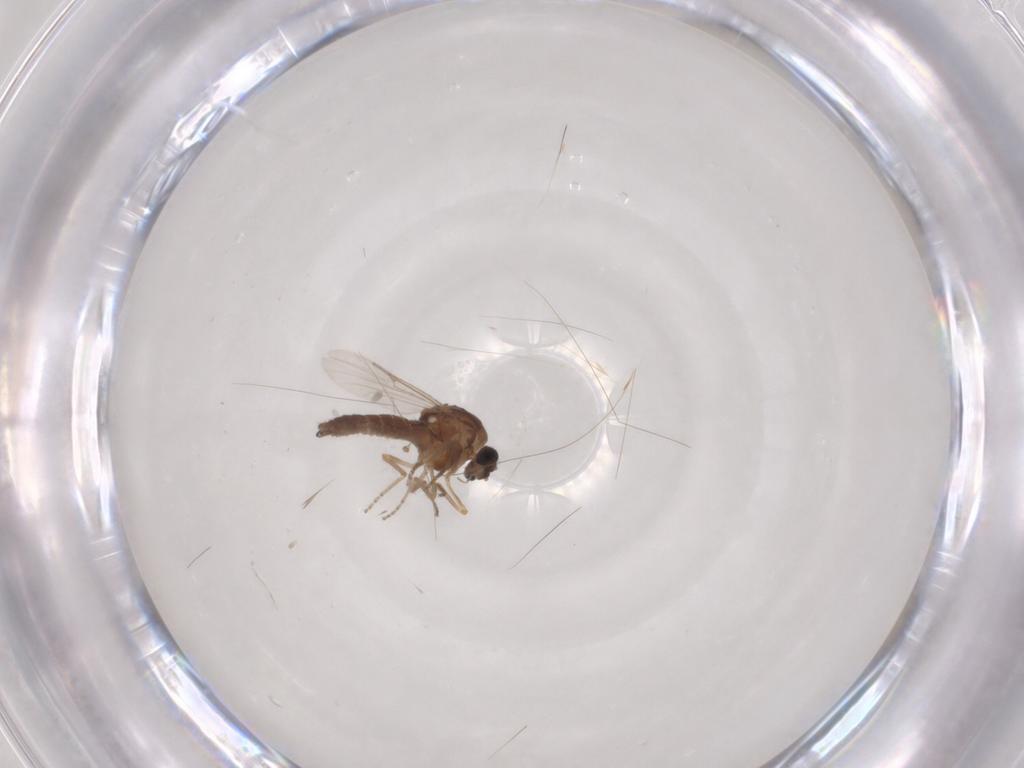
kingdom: Animalia
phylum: Arthropoda
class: Insecta
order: Diptera
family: Ceratopogonidae
